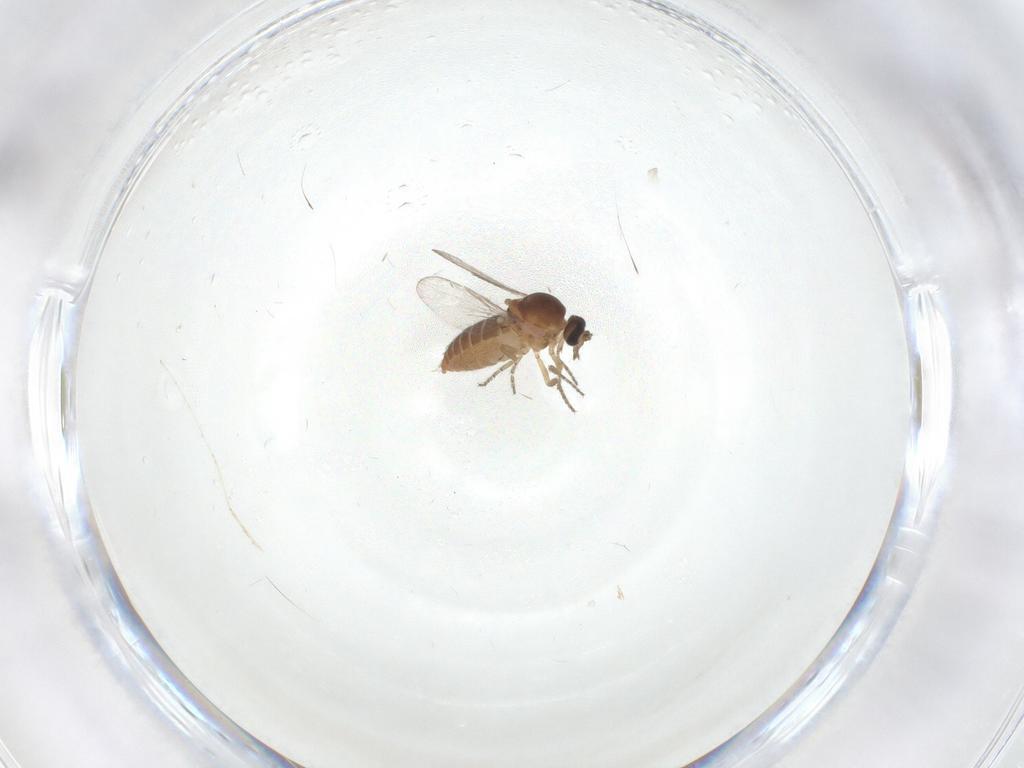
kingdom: Animalia
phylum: Arthropoda
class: Insecta
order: Diptera
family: Ceratopogonidae
